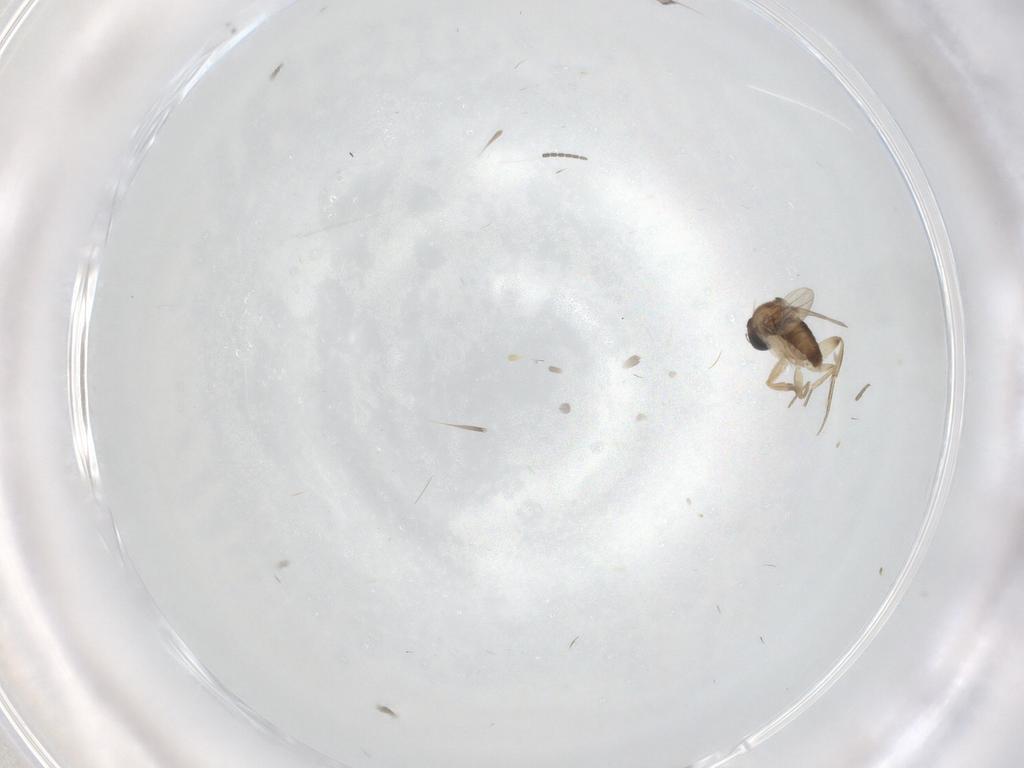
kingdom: Animalia
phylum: Arthropoda
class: Insecta
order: Diptera
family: Phoridae
